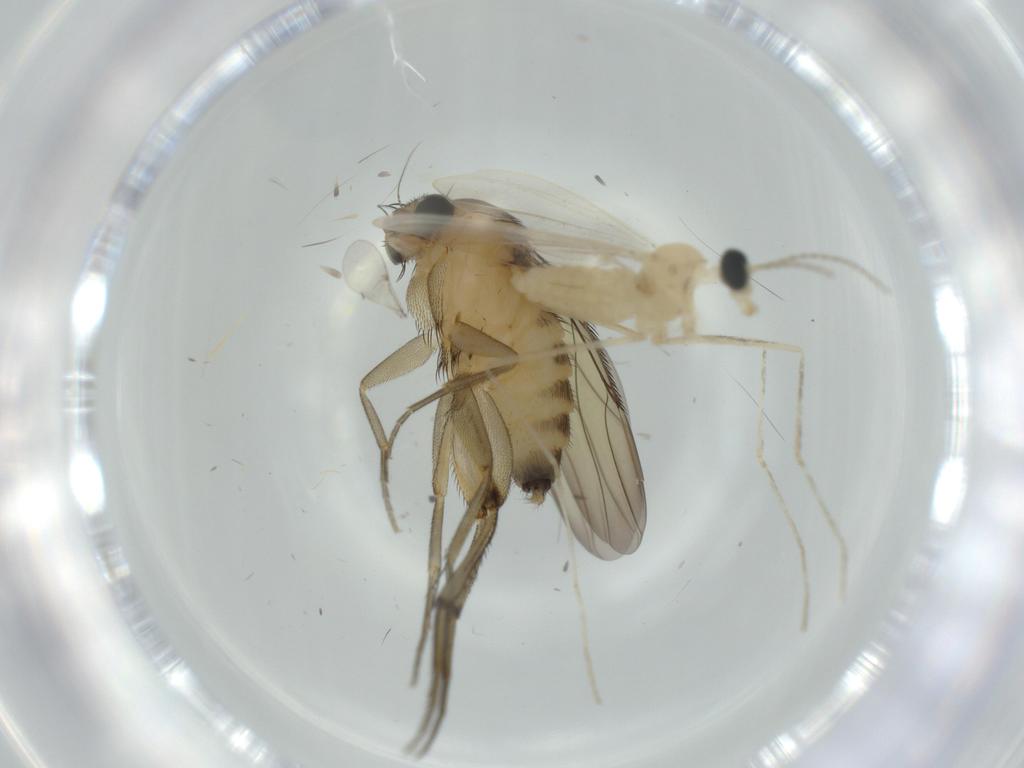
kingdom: Animalia
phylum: Arthropoda
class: Insecta
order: Diptera
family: Phoridae
